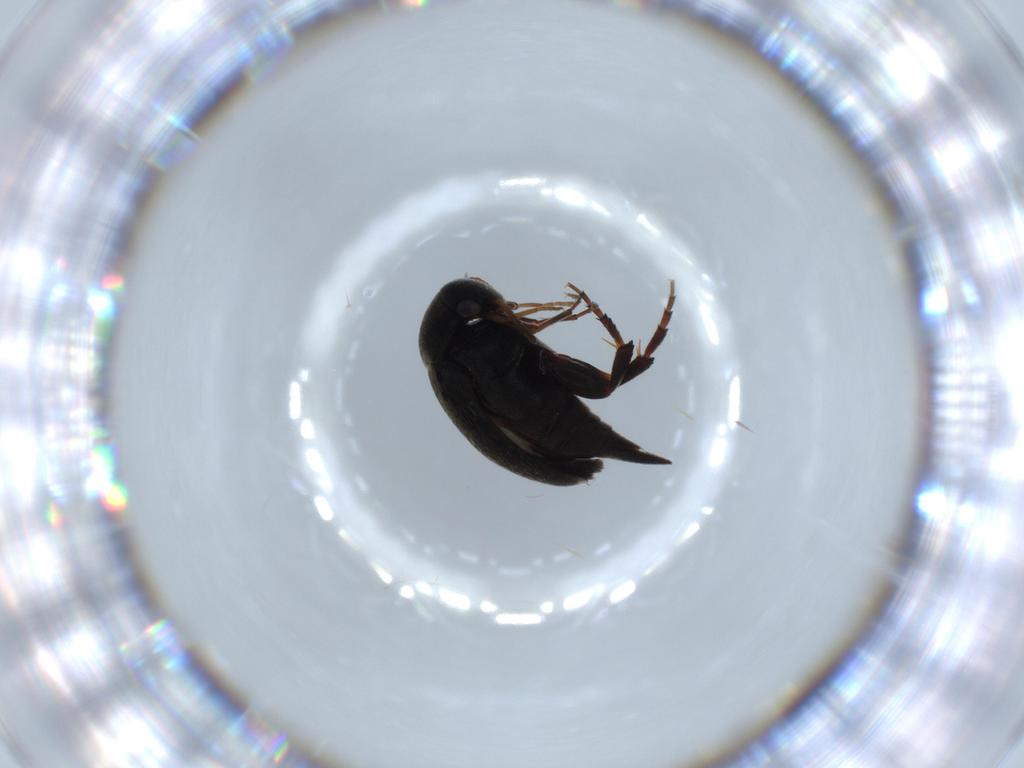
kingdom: Animalia
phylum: Arthropoda
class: Insecta
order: Coleoptera
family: Mordellidae
